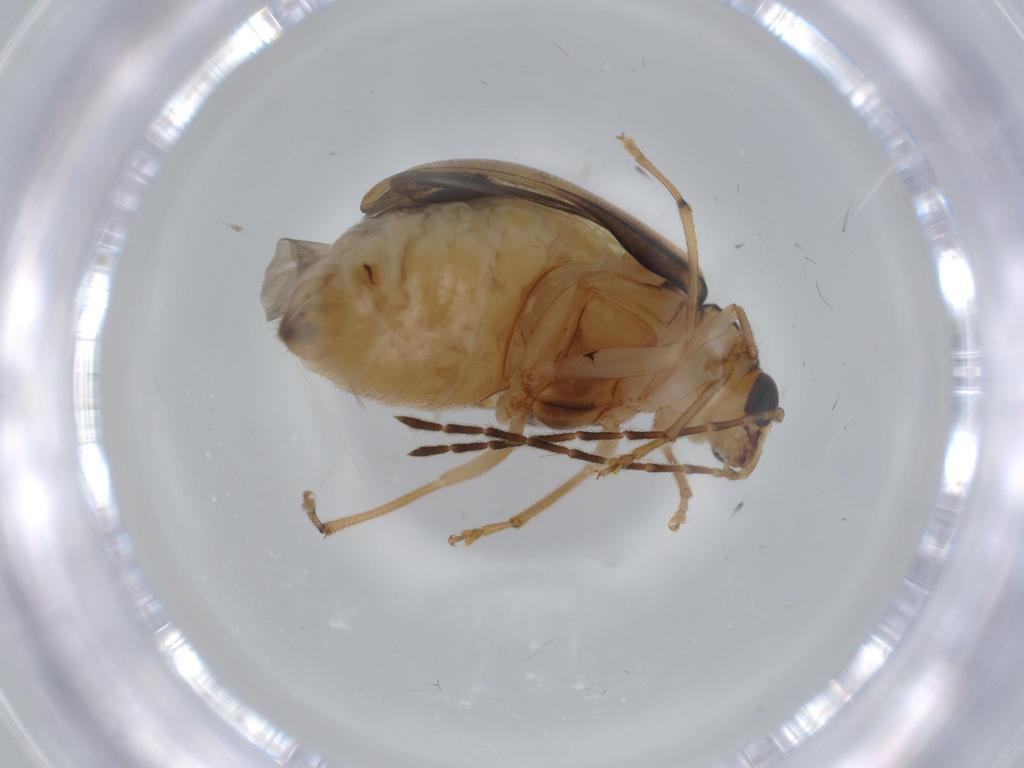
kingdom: Animalia
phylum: Arthropoda
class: Insecta
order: Coleoptera
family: Chrysomelidae
